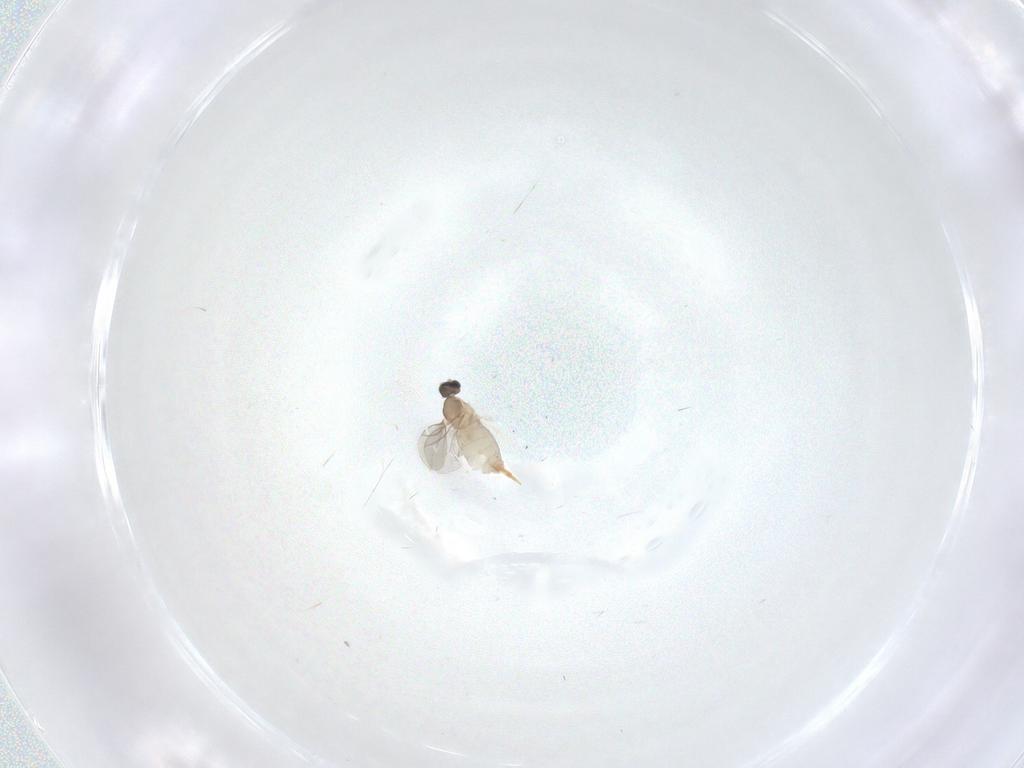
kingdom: Animalia
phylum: Arthropoda
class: Insecta
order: Diptera
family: Cecidomyiidae
